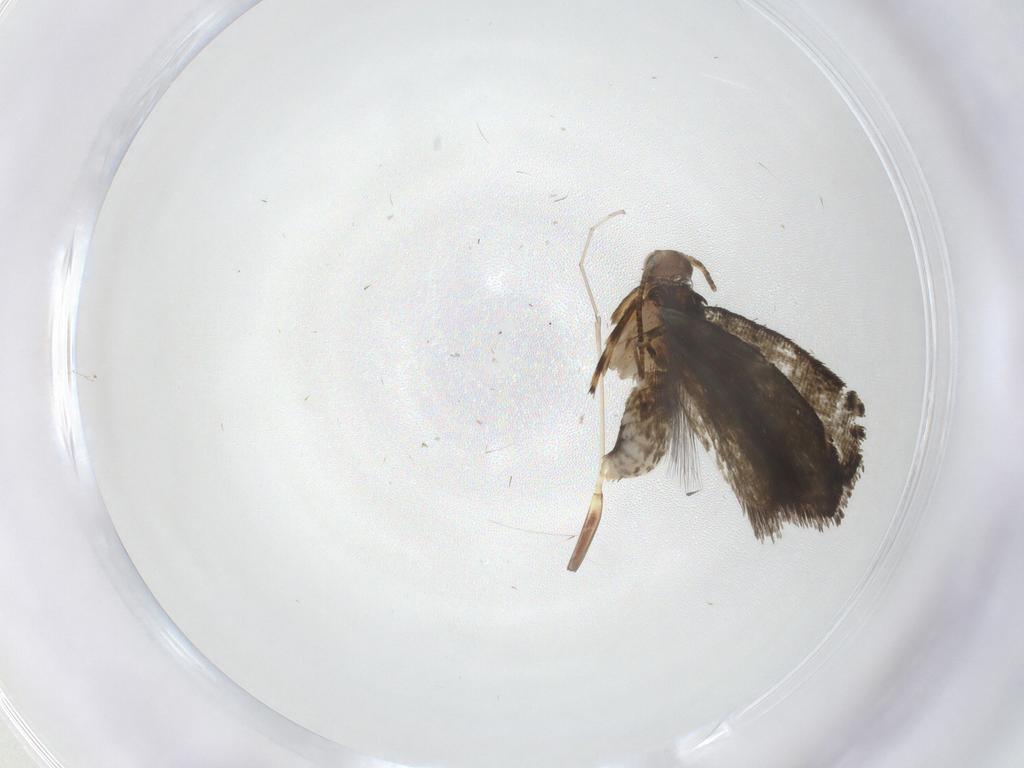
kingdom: Animalia
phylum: Arthropoda
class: Insecta
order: Lepidoptera
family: Tineidae
